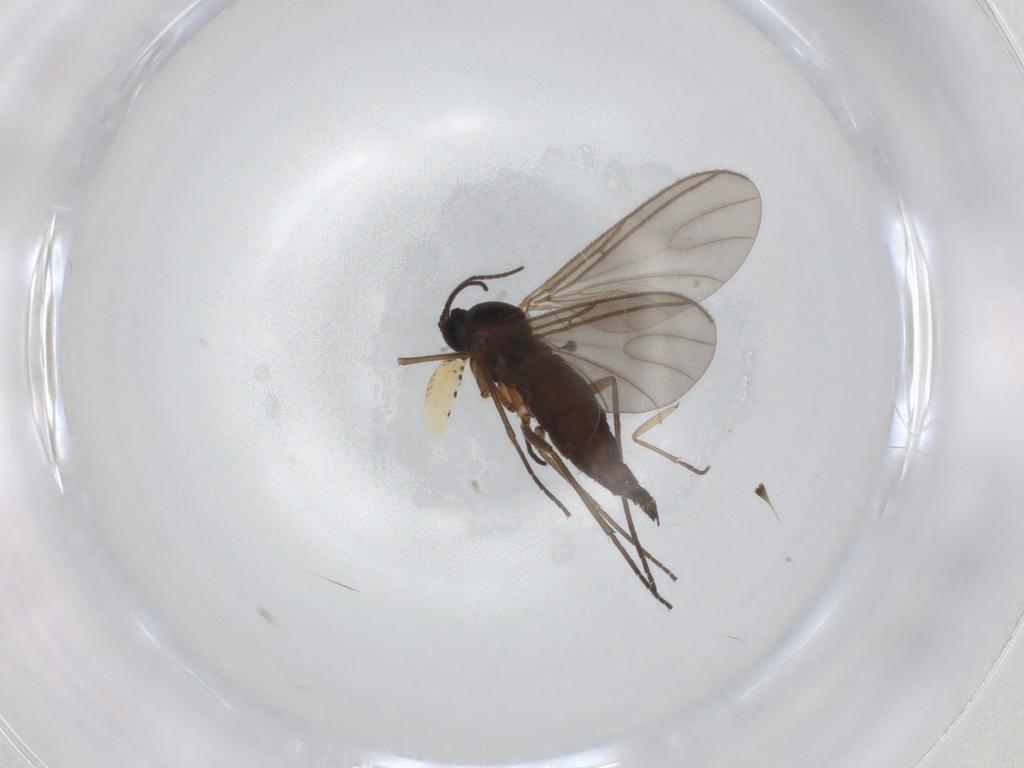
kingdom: Animalia
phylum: Arthropoda
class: Insecta
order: Diptera
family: Sciaridae
